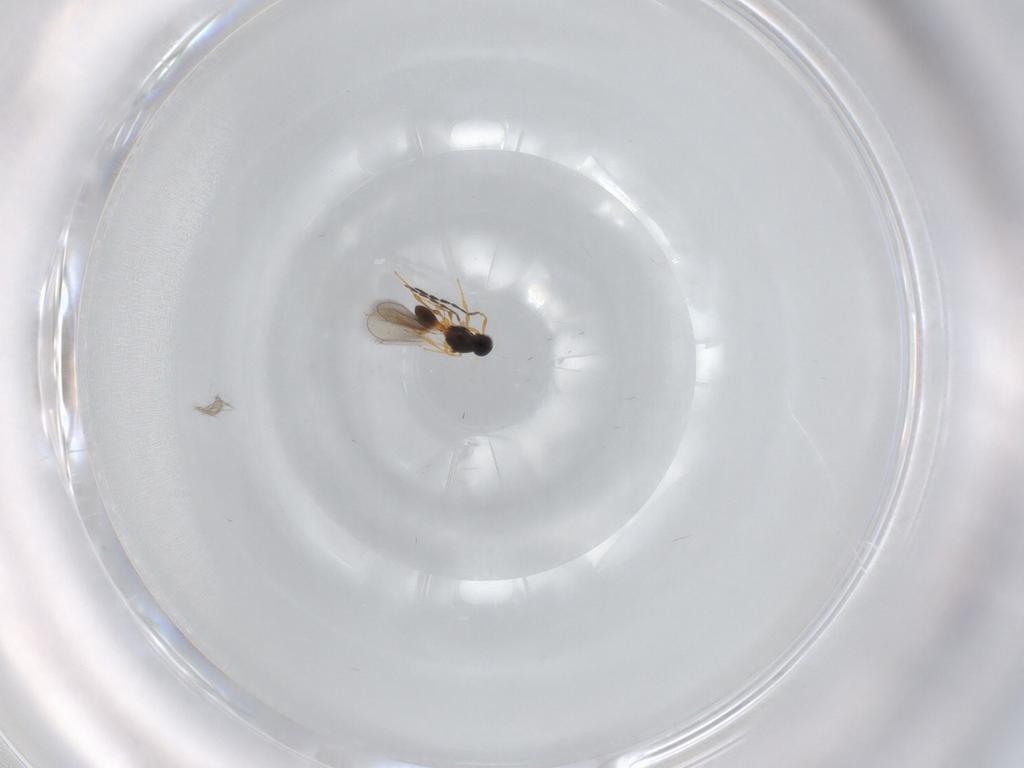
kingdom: Animalia
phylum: Arthropoda
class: Insecta
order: Hymenoptera
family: Platygastridae
